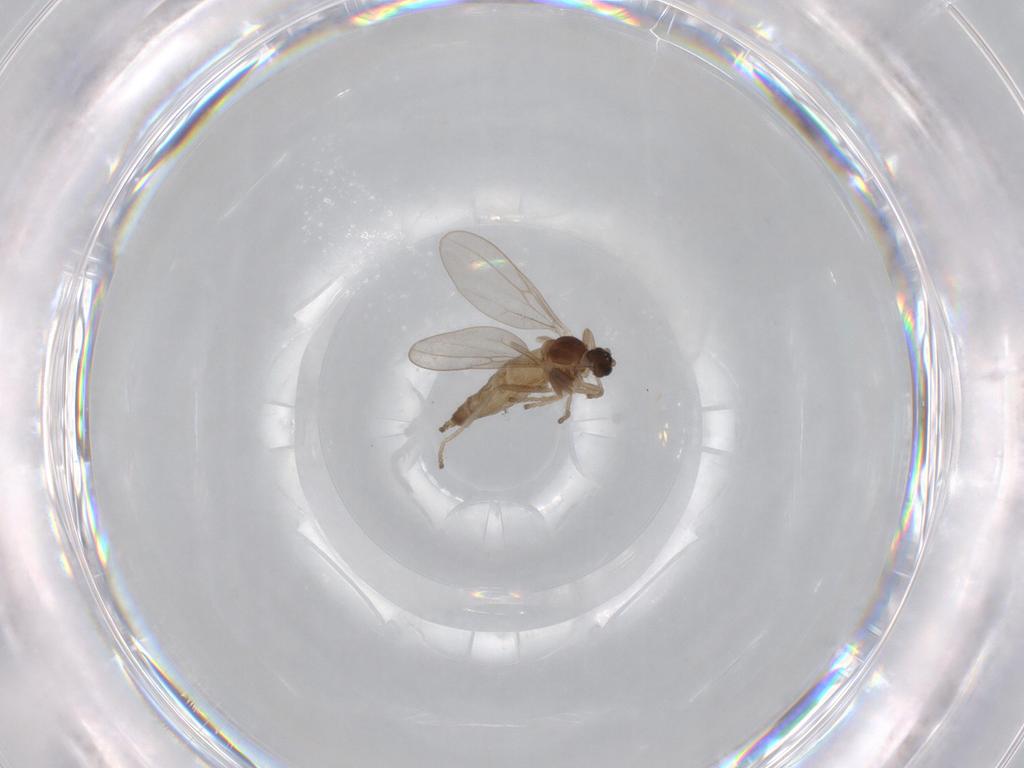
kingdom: Animalia
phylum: Arthropoda
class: Insecta
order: Diptera
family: Cecidomyiidae
